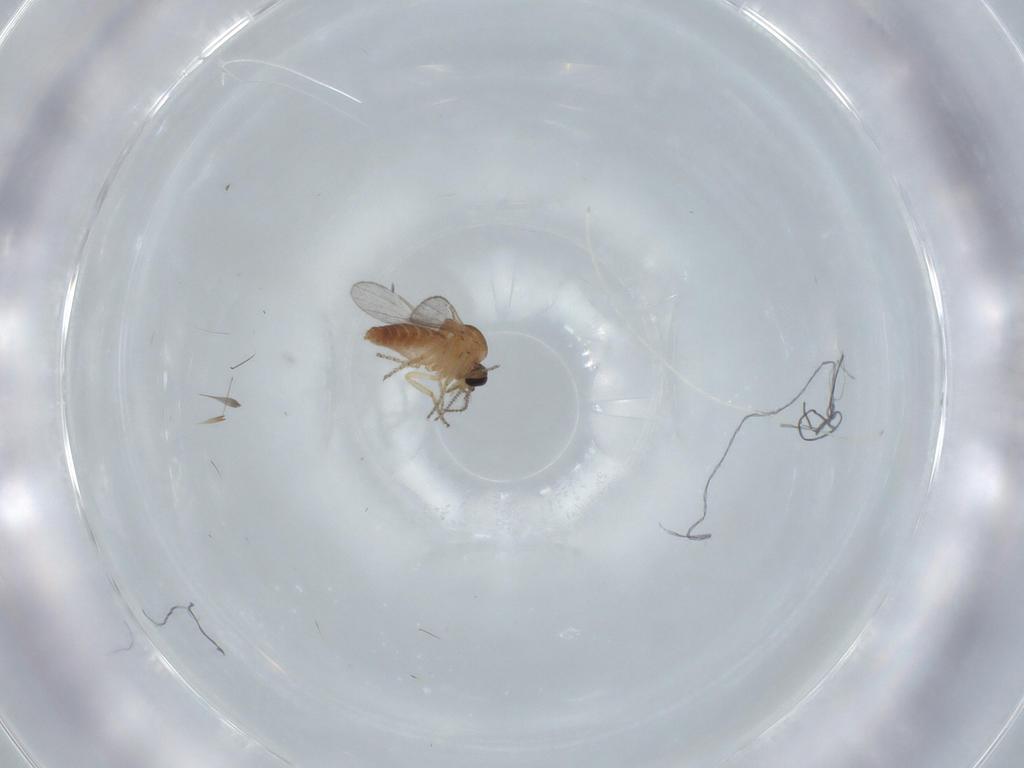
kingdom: Animalia
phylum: Arthropoda
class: Insecta
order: Diptera
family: Ceratopogonidae
